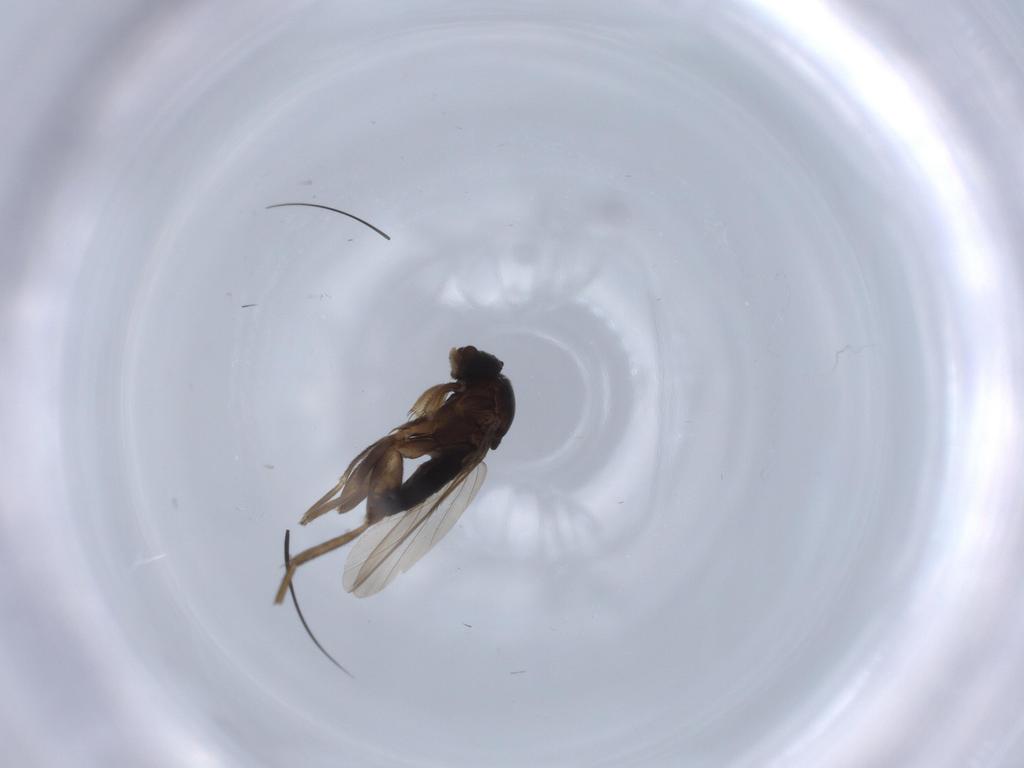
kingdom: Animalia
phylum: Arthropoda
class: Insecta
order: Diptera
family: Phoridae
